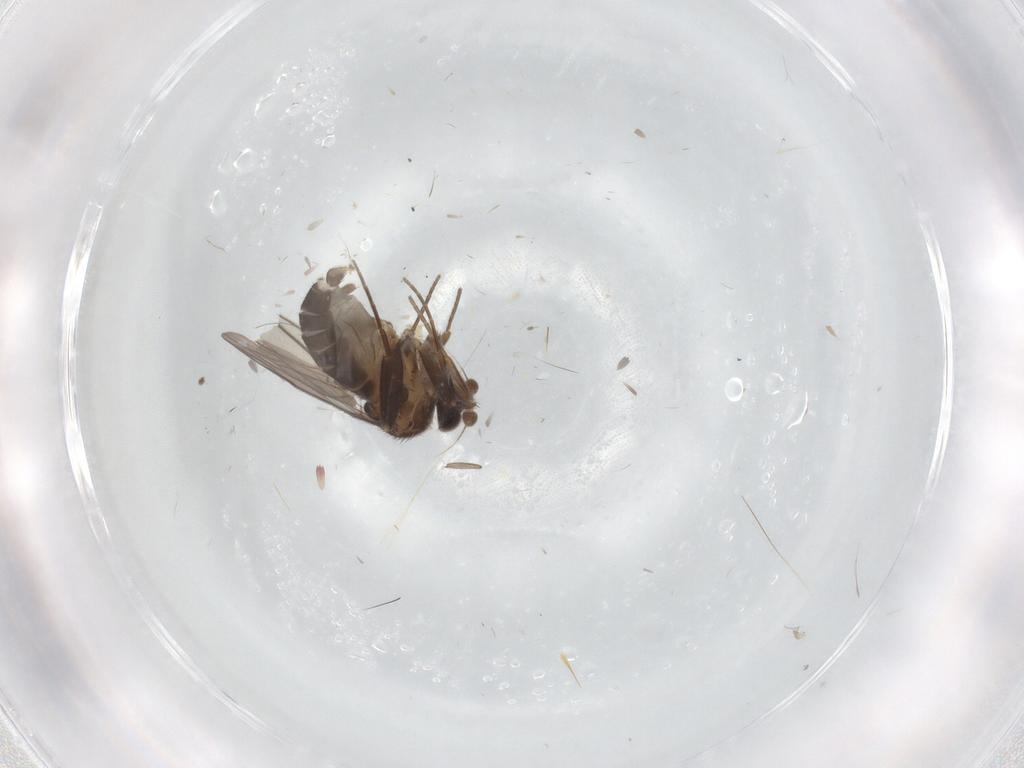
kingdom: Animalia
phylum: Arthropoda
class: Insecta
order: Diptera
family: Cecidomyiidae
